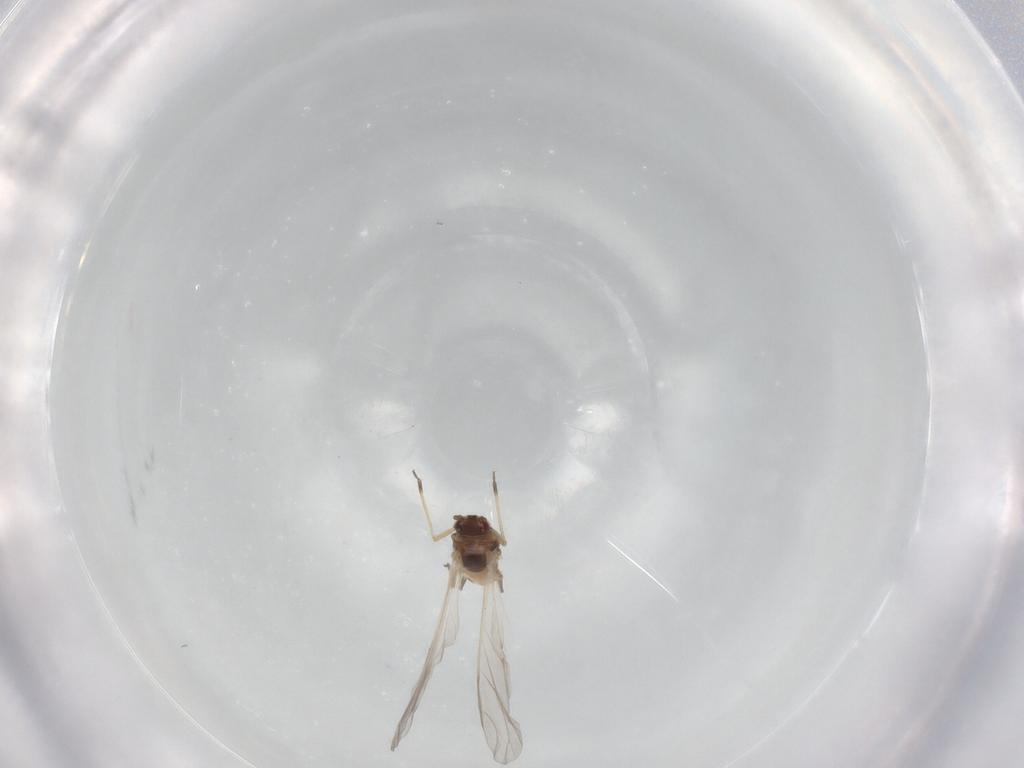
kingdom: Animalia
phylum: Arthropoda
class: Insecta
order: Hemiptera
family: Aphididae
